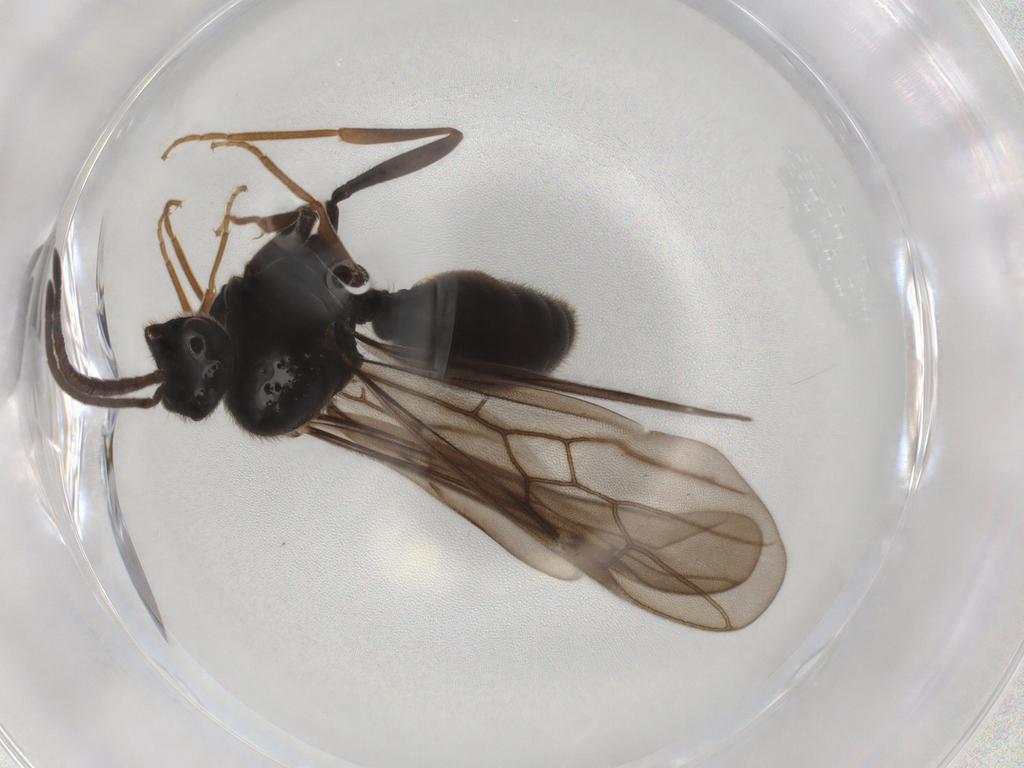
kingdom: Animalia
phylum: Arthropoda
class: Insecta
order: Hymenoptera
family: Formicidae
